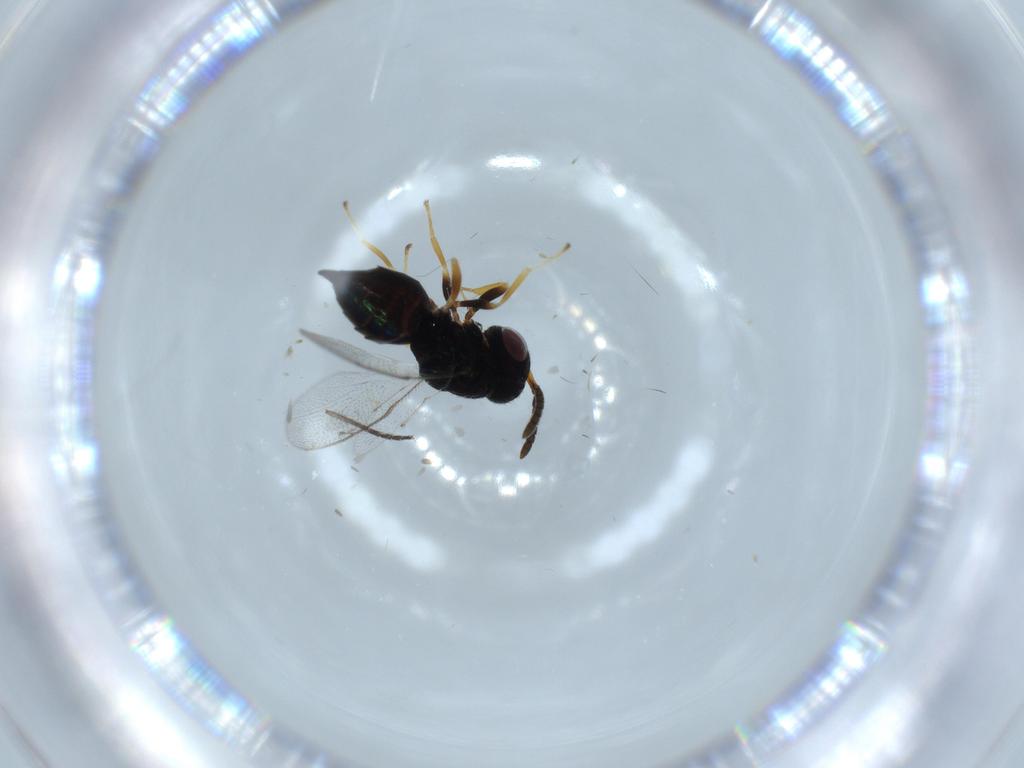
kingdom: Animalia
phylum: Arthropoda
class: Insecta
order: Hymenoptera
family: Pteromalidae
